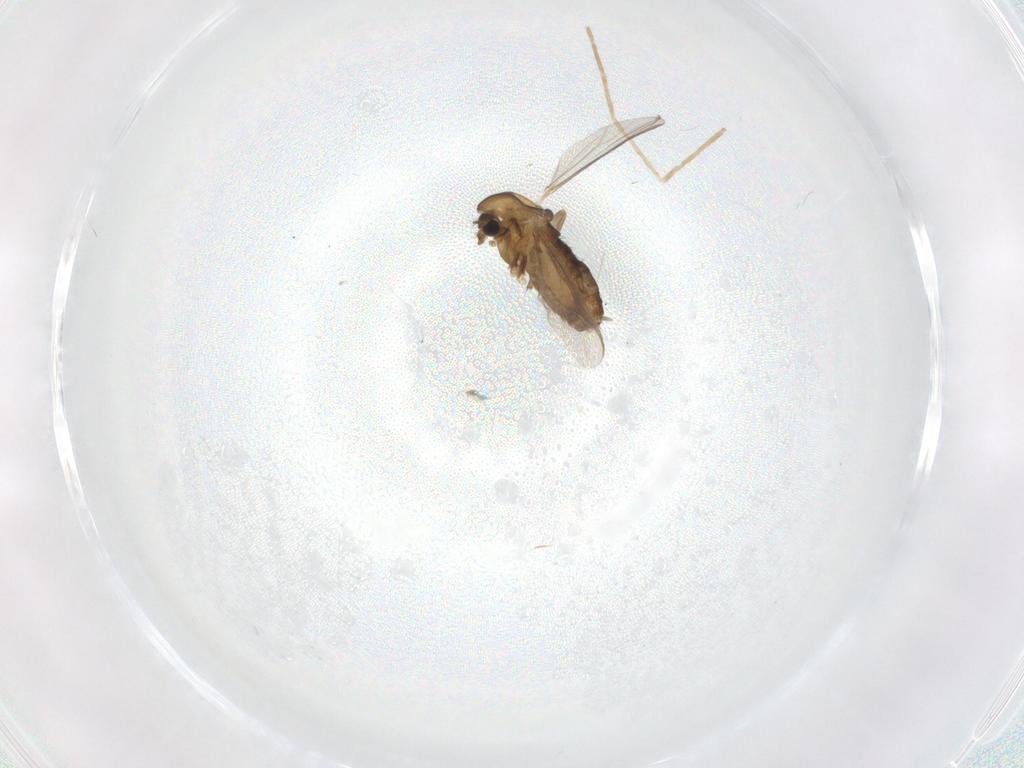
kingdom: Animalia
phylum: Arthropoda
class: Insecta
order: Diptera
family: Chironomidae
